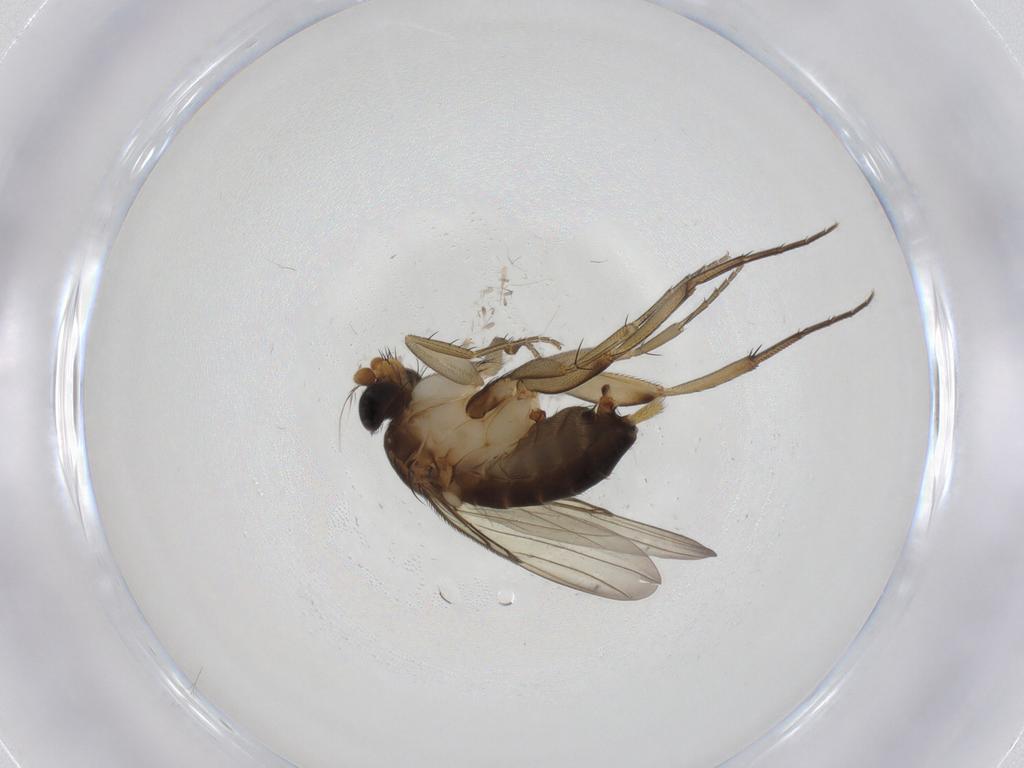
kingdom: Animalia
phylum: Arthropoda
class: Insecta
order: Diptera
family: Phoridae
